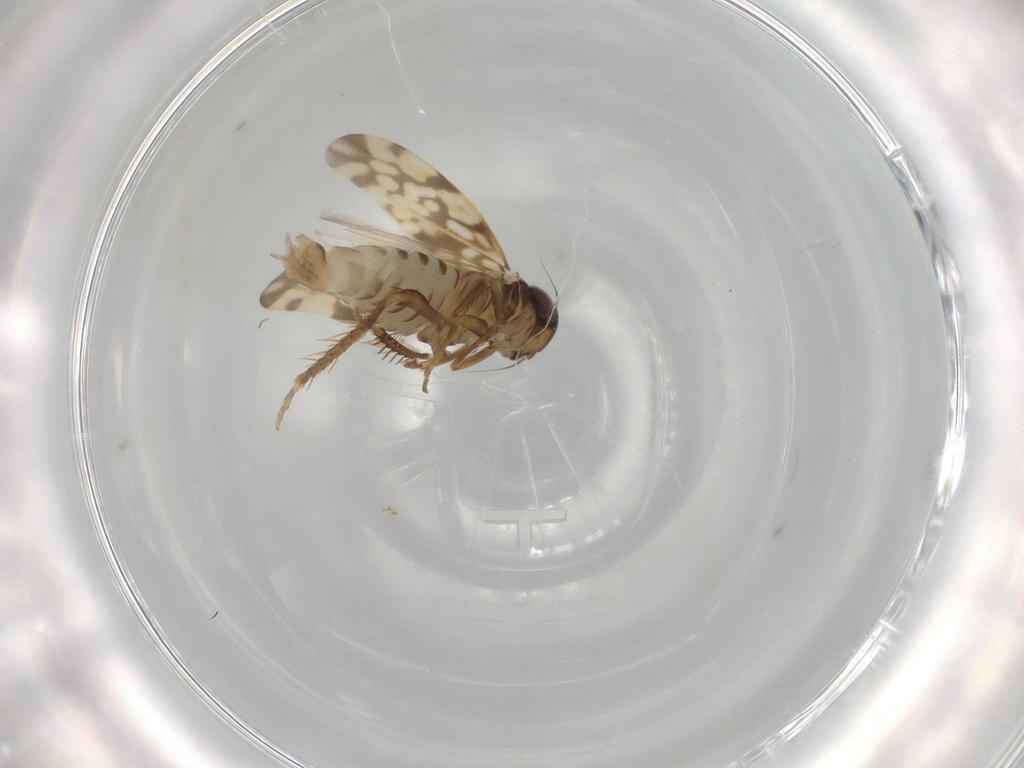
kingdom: Animalia
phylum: Arthropoda
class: Insecta
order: Hemiptera
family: Cicadellidae
